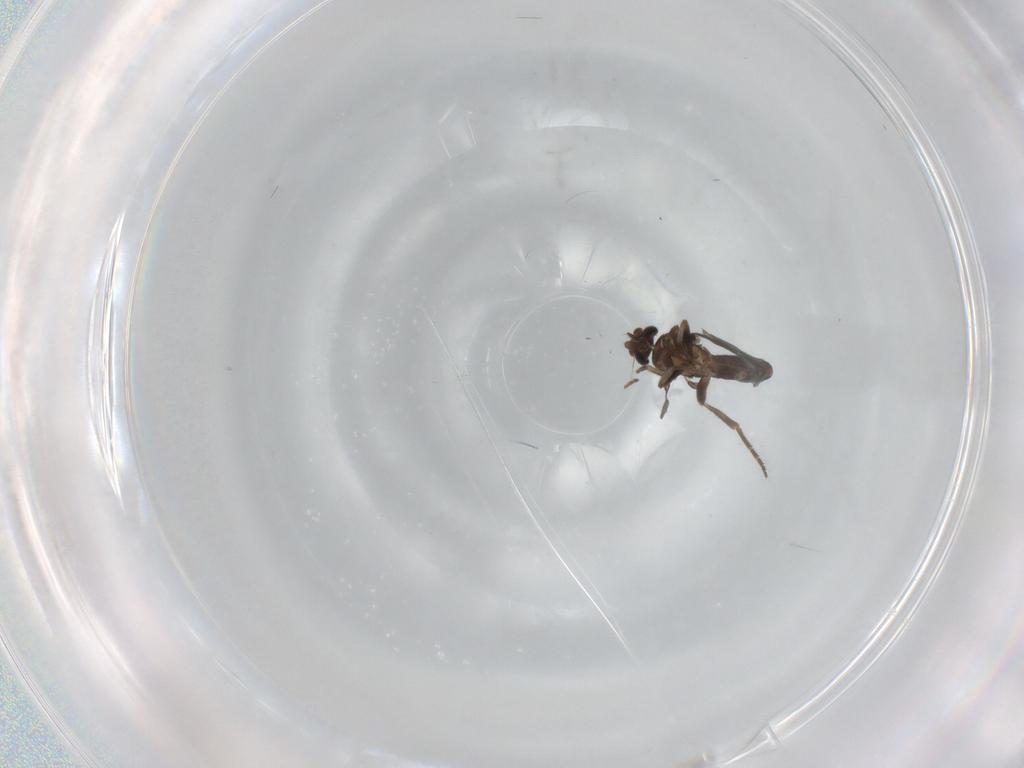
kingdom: Animalia
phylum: Arthropoda
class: Insecta
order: Diptera
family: Phoridae
